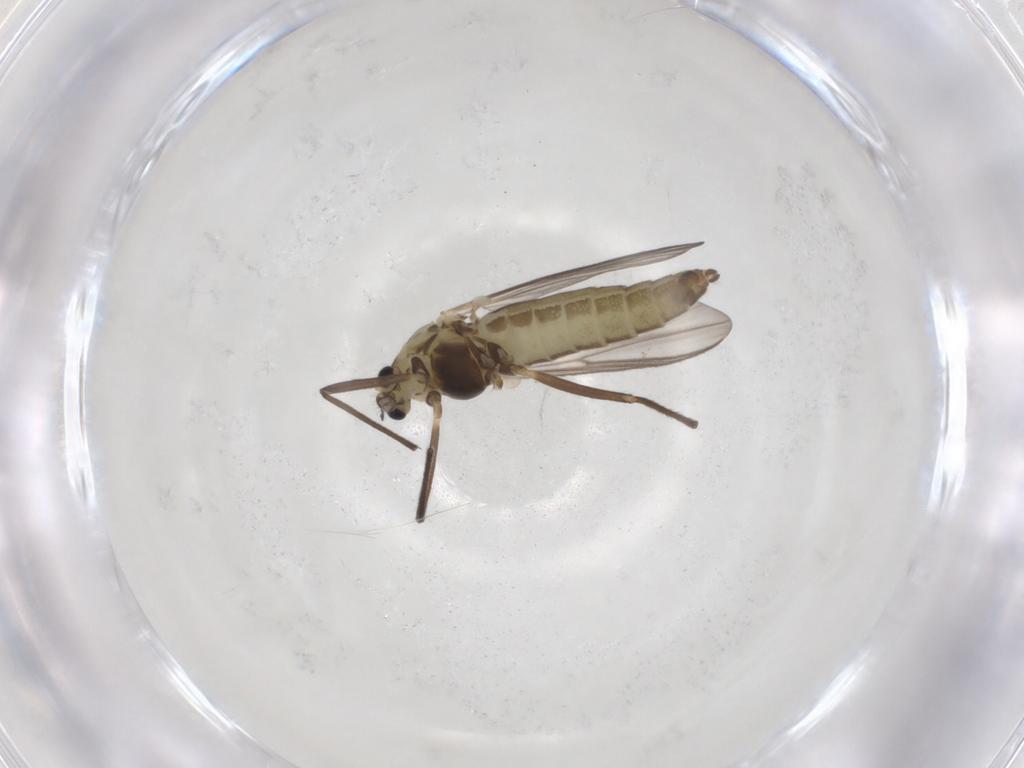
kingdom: Animalia
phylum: Arthropoda
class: Insecta
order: Diptera
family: Chironomidae
